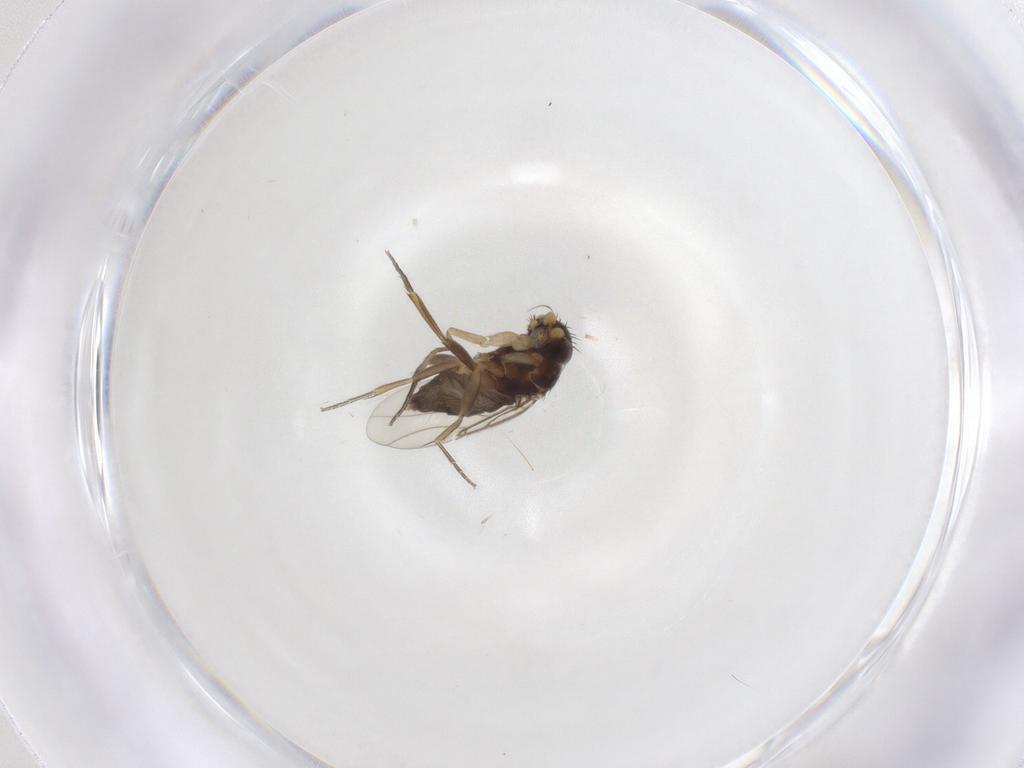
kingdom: Animalia
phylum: Arthropoda
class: Insecta
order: Diptera
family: Phoridae
